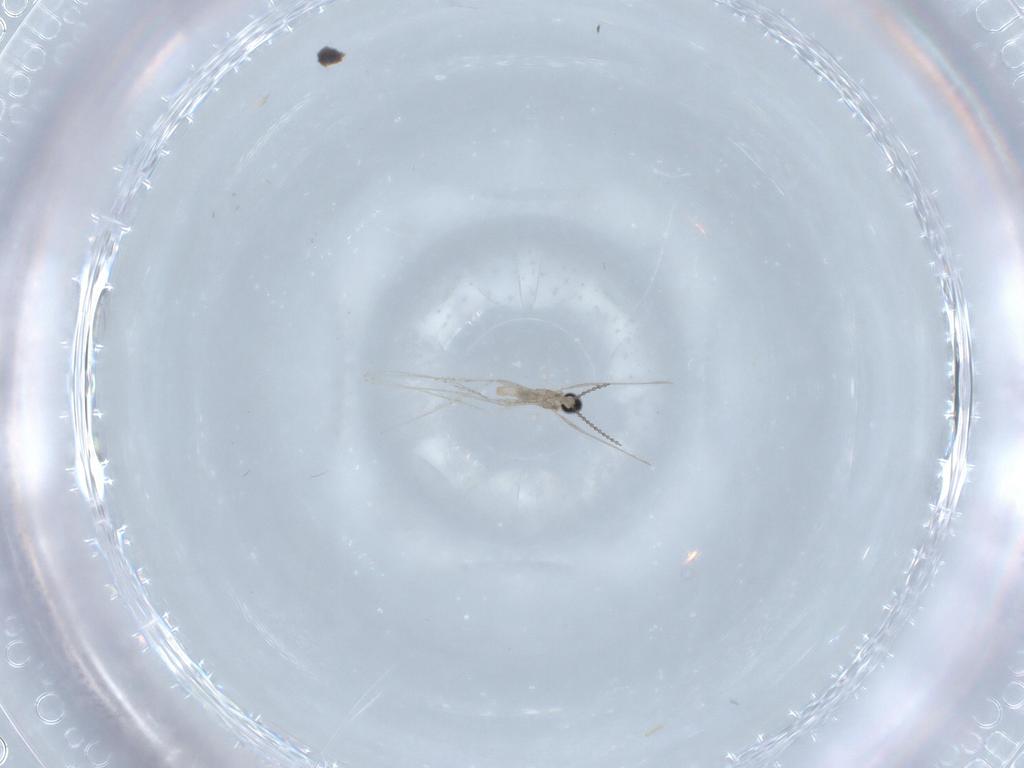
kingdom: Animalia
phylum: Arthropoda
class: Insecta
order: Diptera
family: Cecidomyiidae
